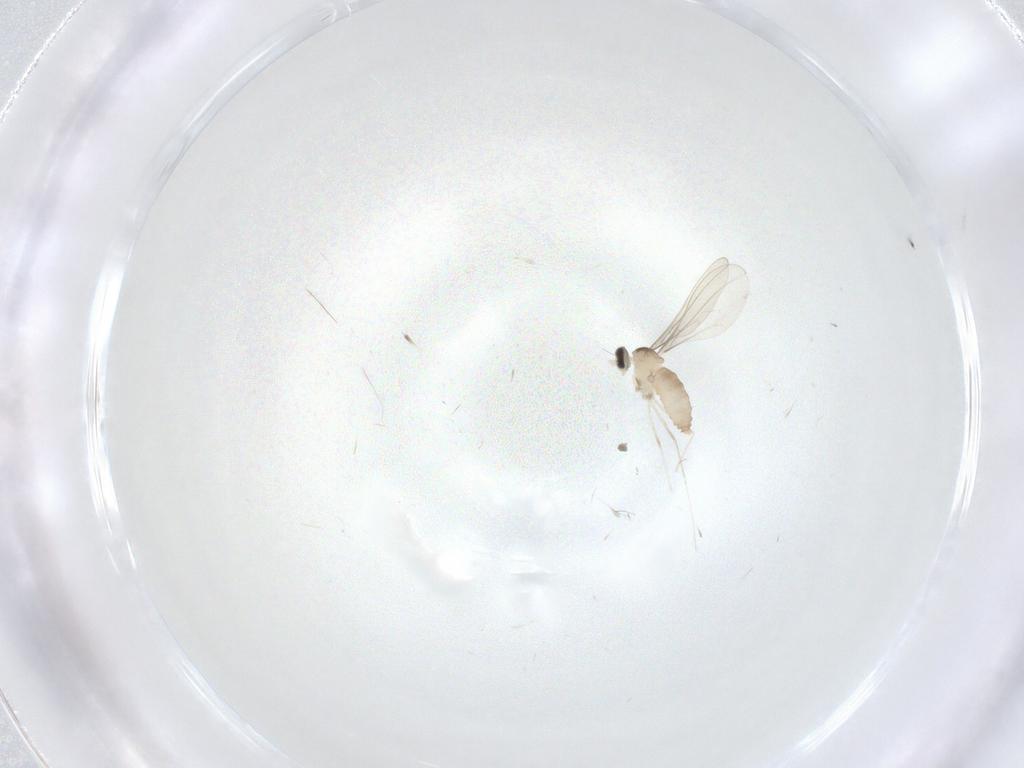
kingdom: Animalia
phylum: Arthropoda
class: Insecta
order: Diptera
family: Cecidomyiidae
